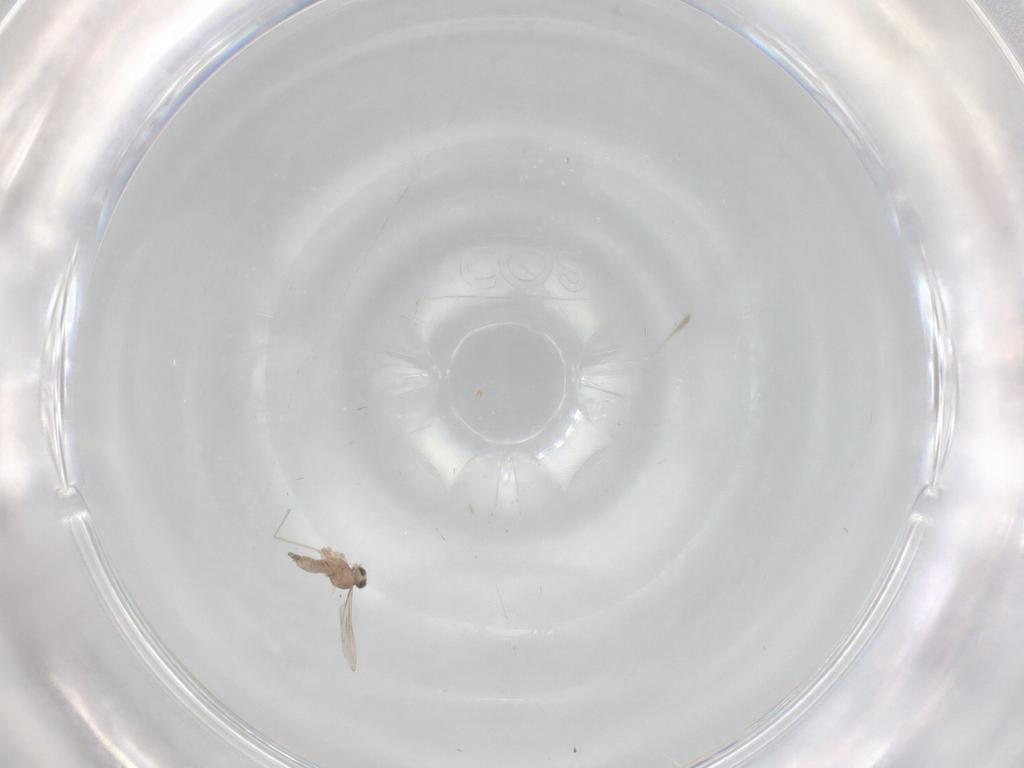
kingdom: Animalia
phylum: Arthropoda
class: Insecta
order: Diptera
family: Cecidomyiidae
